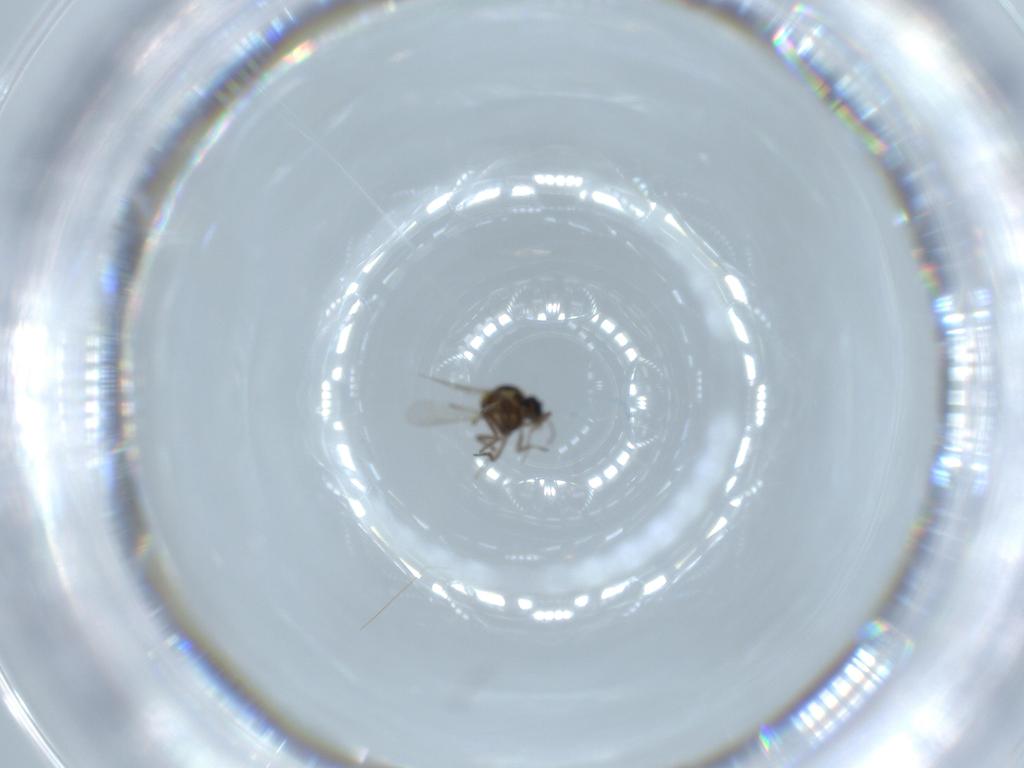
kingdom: Animalia
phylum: Arthropoda
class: Insecta
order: Diptera
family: Ceratopogonidae
